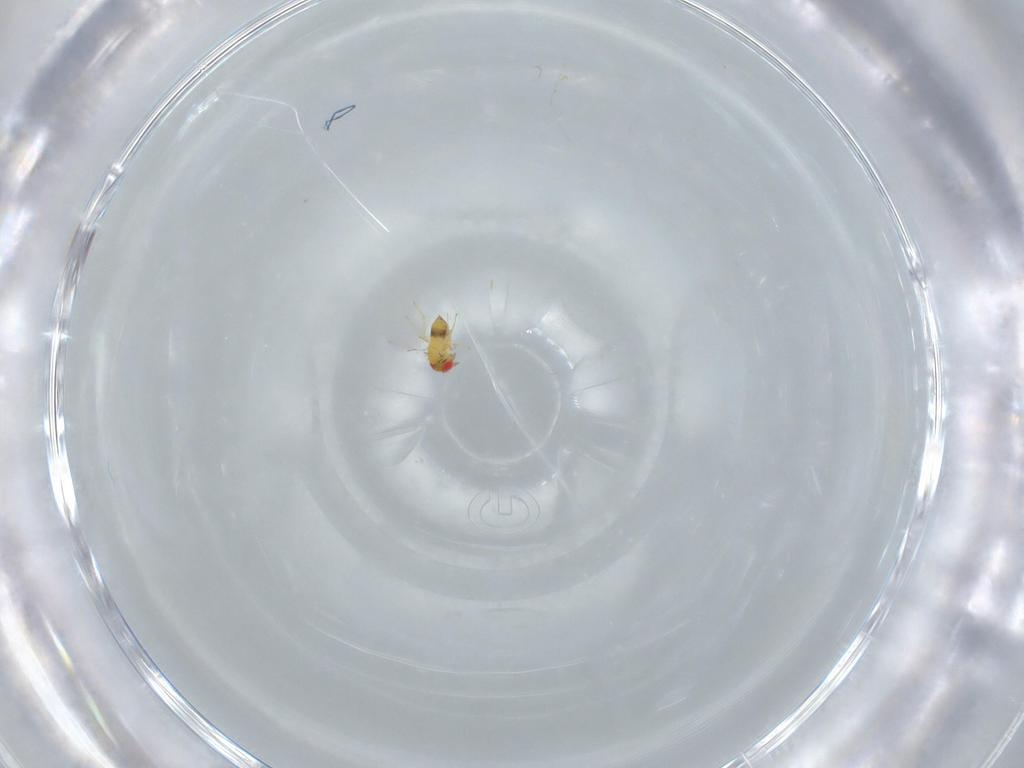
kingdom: Animalia
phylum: Arthropoda
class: Insecta
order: Hymenoptera
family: Trichogrammatidae
